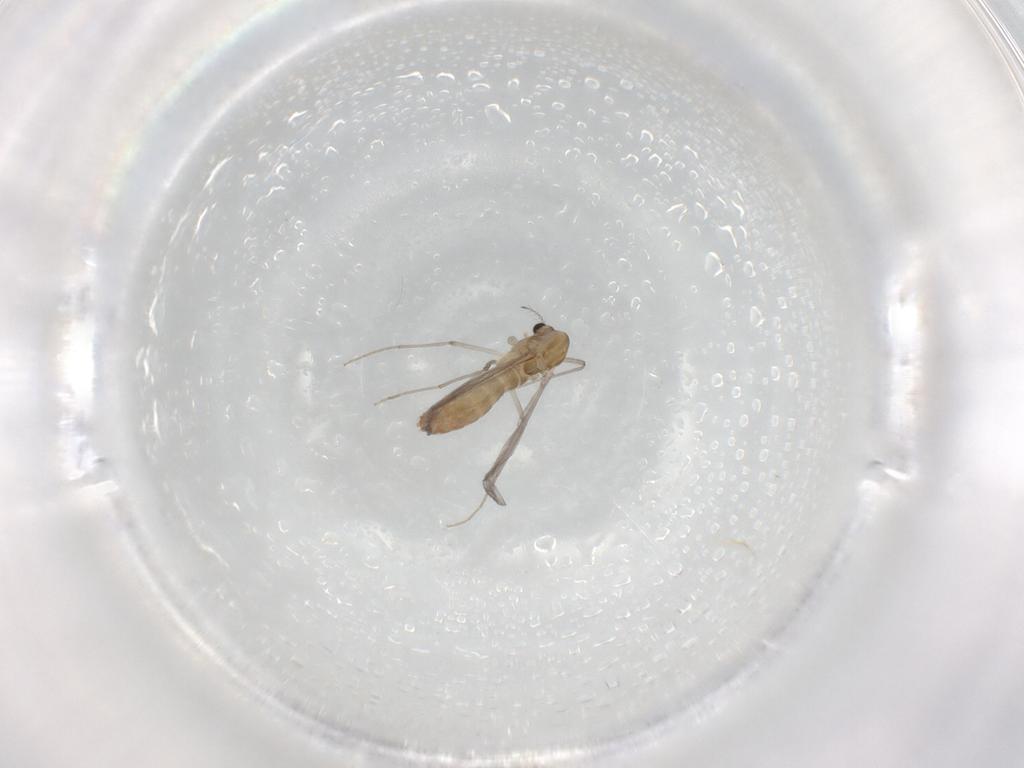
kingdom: Animalia
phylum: Arthropoda
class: Insecta
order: Diptera
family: Chironomidae
